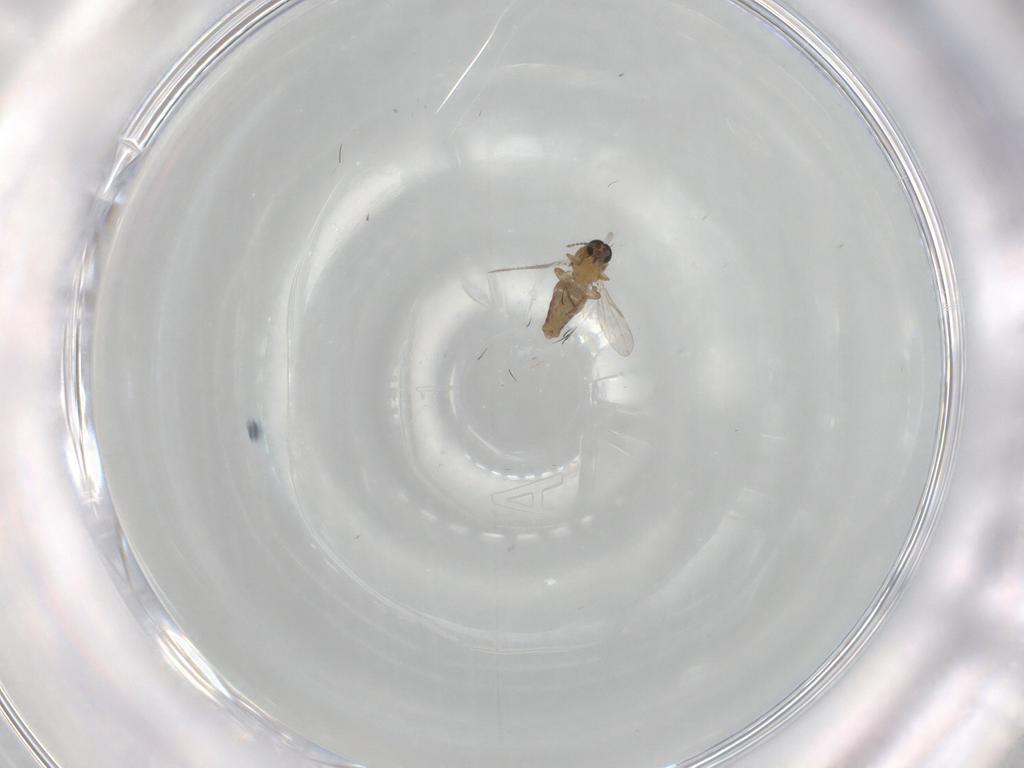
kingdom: Animalia
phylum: Arthropoda
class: Insecta
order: Diptera
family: Ceratopogonidae
